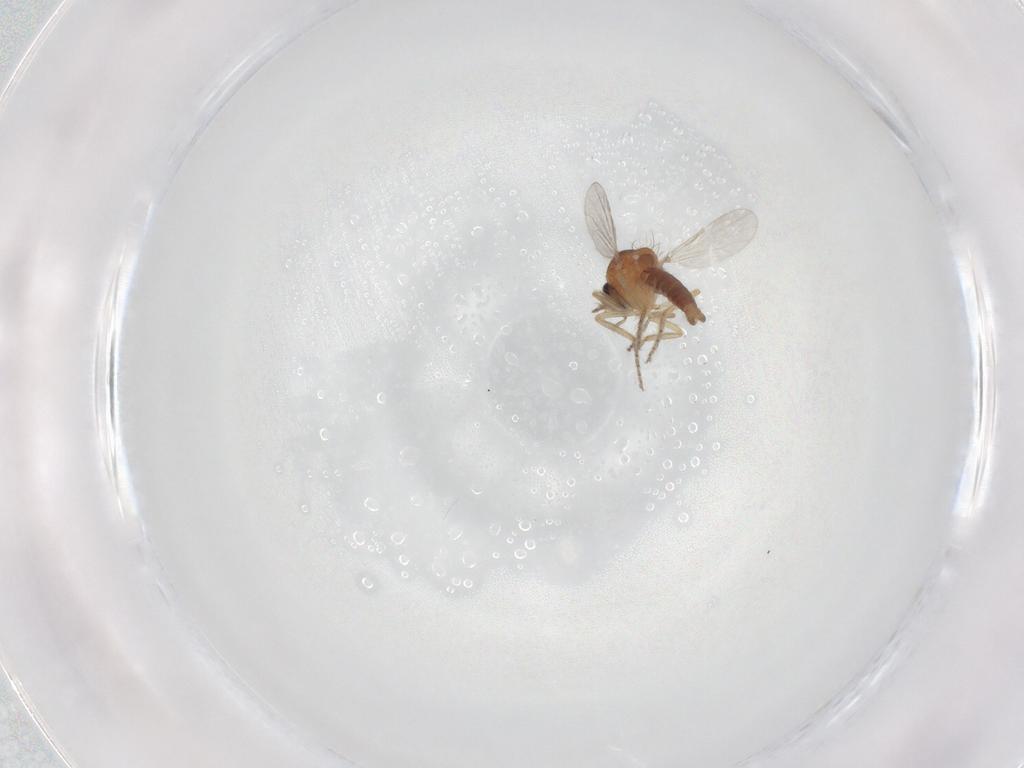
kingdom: Animalia
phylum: Arthropoda
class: Insecta
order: Diptera
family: Ceratopogonidae
